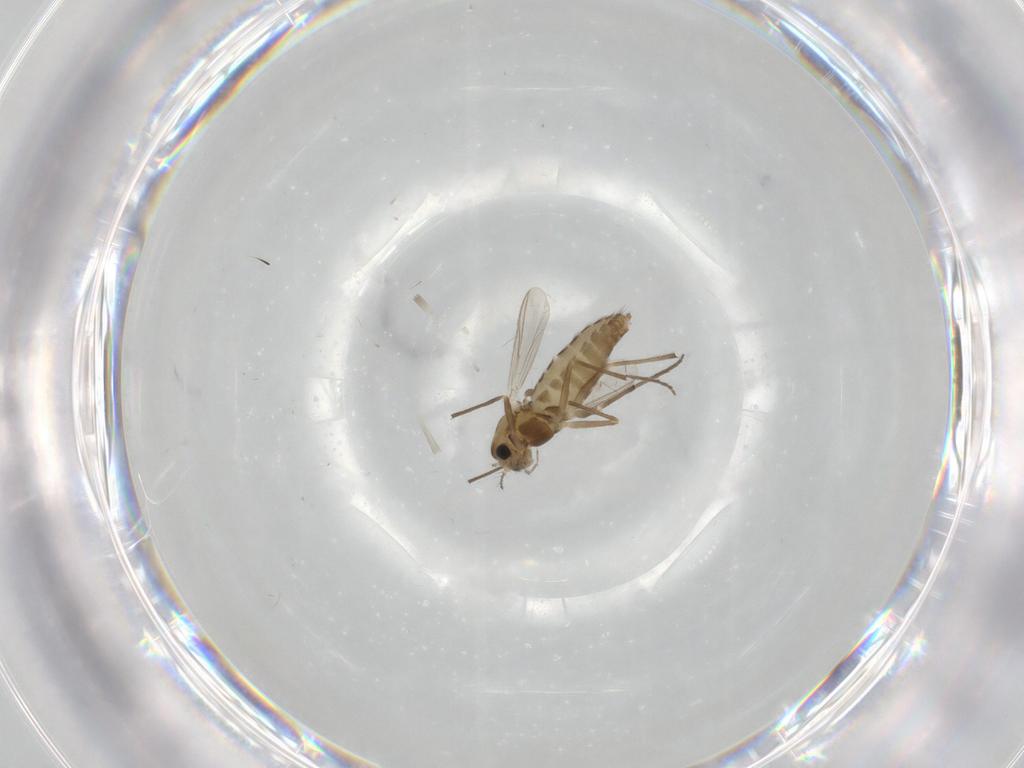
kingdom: Animalia
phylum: Arthropoda
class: Insecta
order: Diptera
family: Chironomidae
